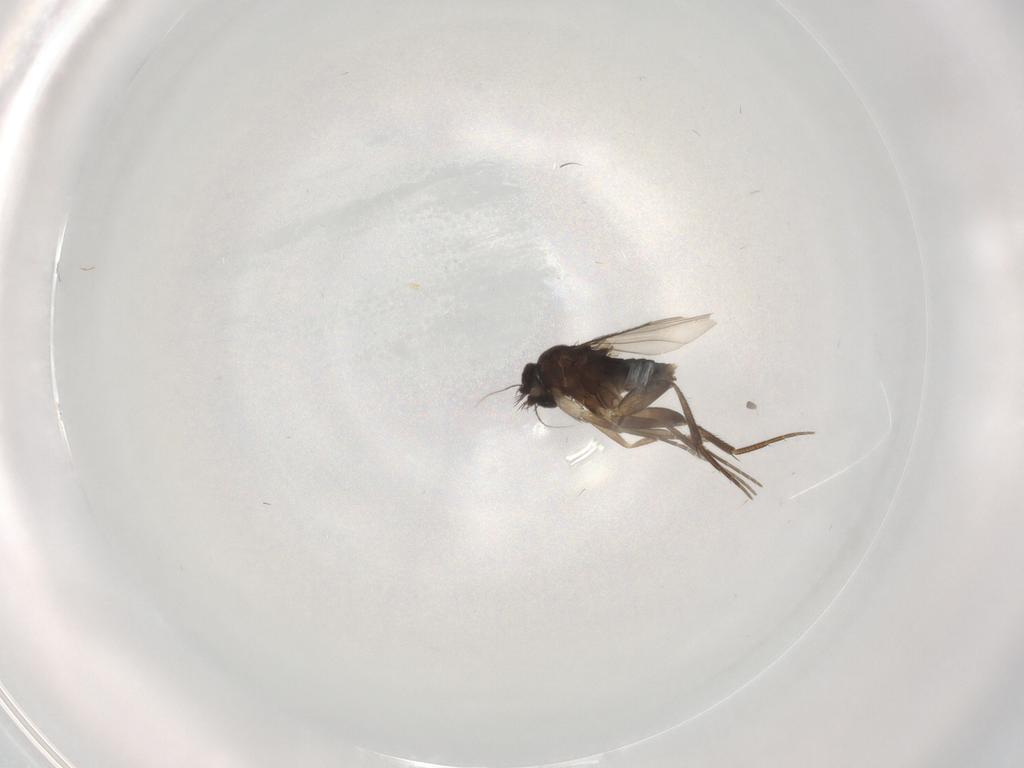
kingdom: Animalia
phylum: Arthropoda
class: Insecta
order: Diptera
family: Phoridae
